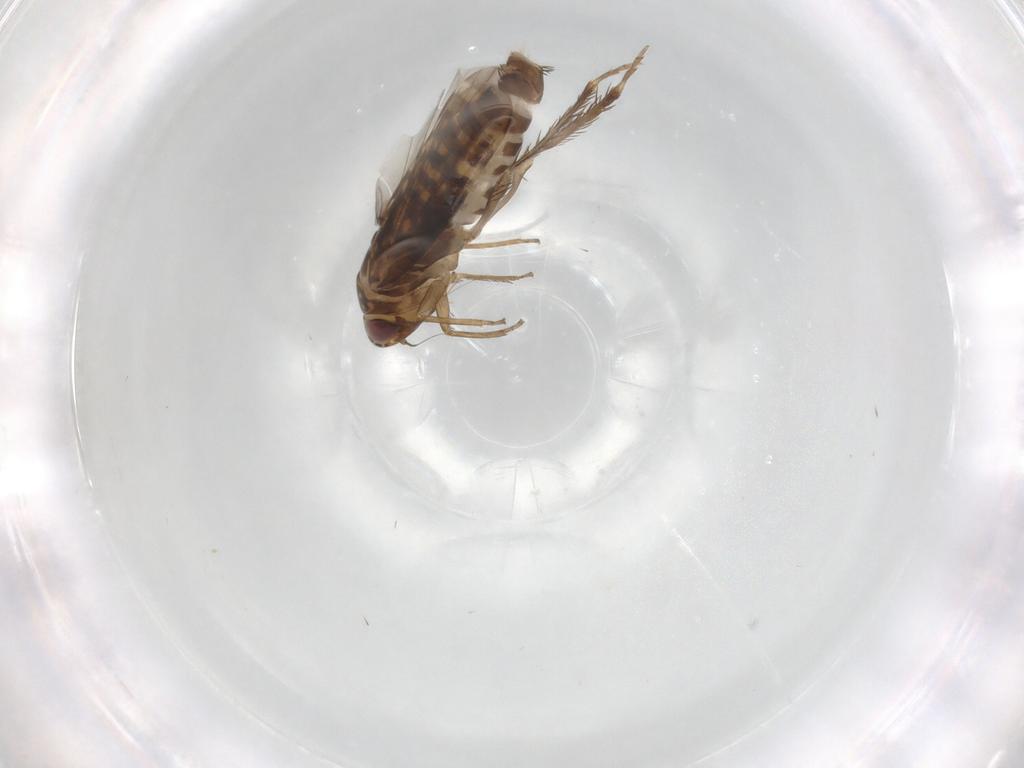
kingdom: Animalia
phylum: Arthropoda
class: Insecta
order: Hemiptera
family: Cicadellidae
